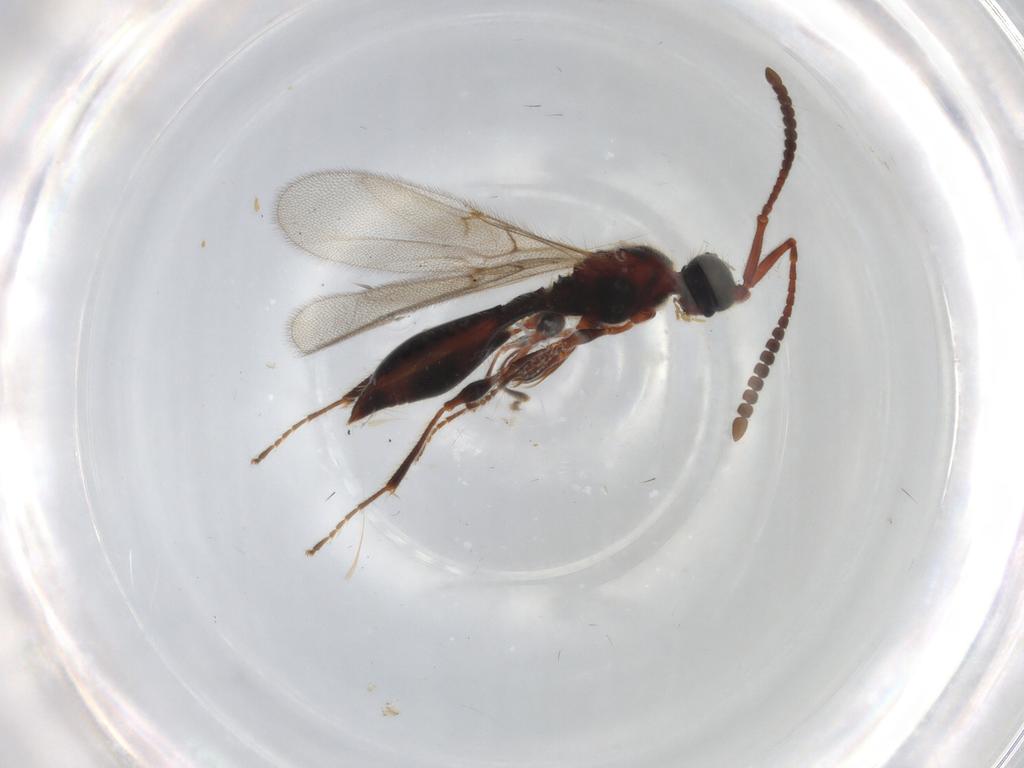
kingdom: Animalia
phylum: Arthropoda
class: Insecta
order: Hymenoptera
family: Diapriidae
